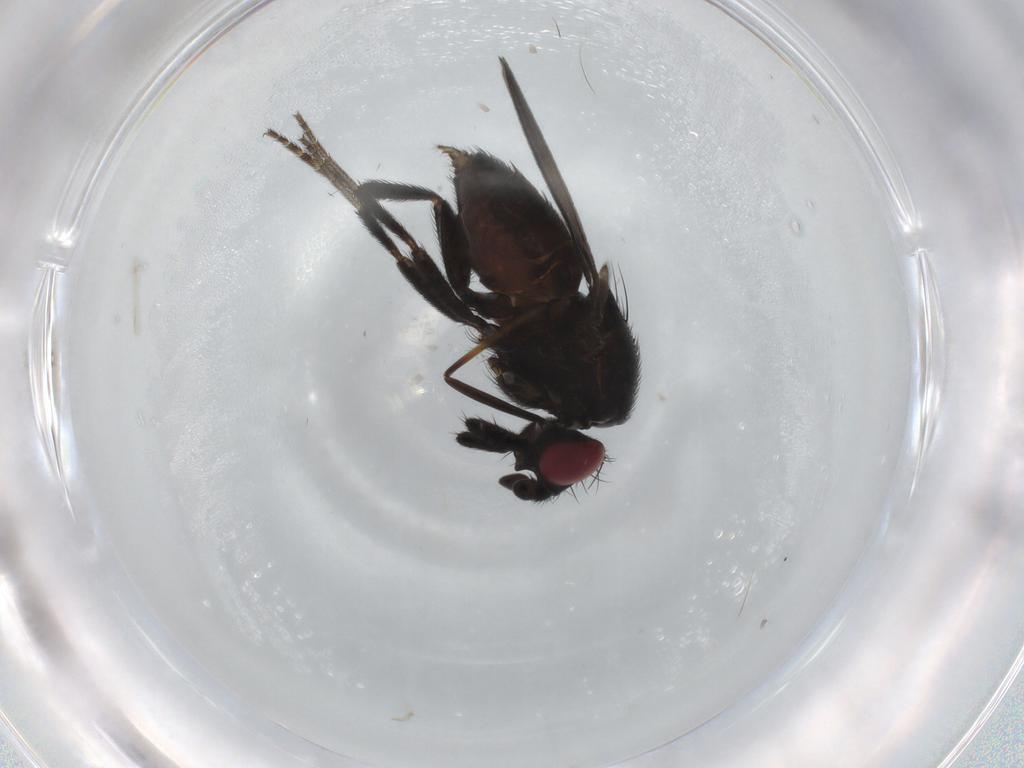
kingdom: Animalia
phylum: Arthropoda
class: Insecta
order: Diptera
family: Milichiidae
